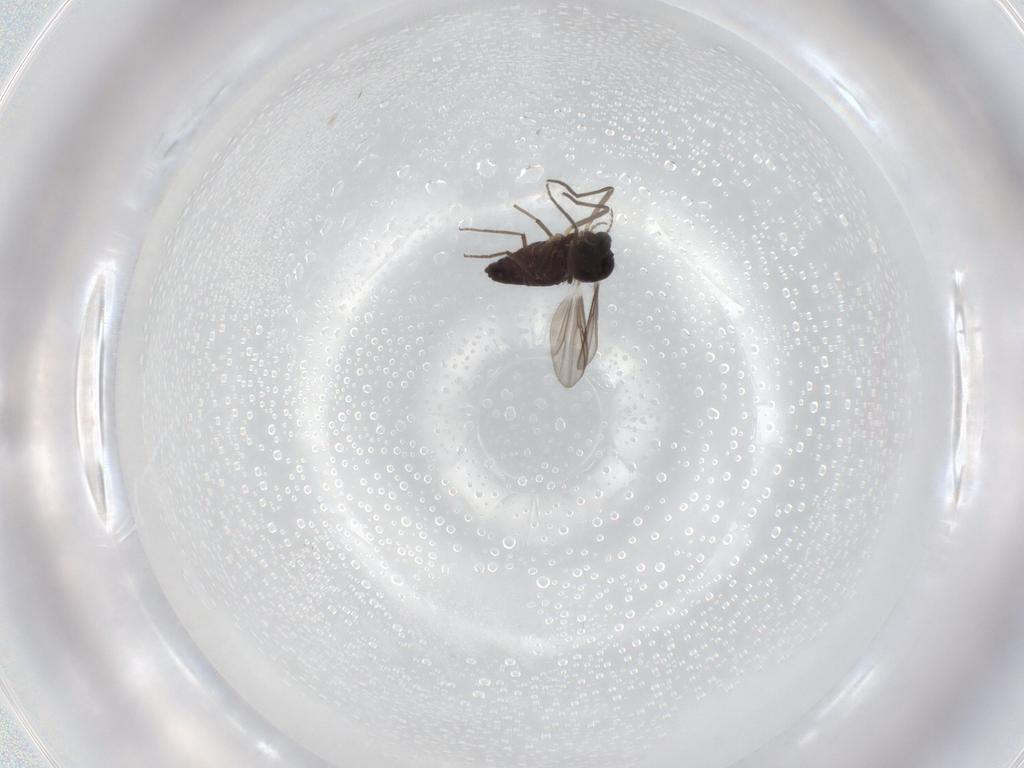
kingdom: Animalia
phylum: Arthropoda
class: Insecta
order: Diptera
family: Chironomidae
